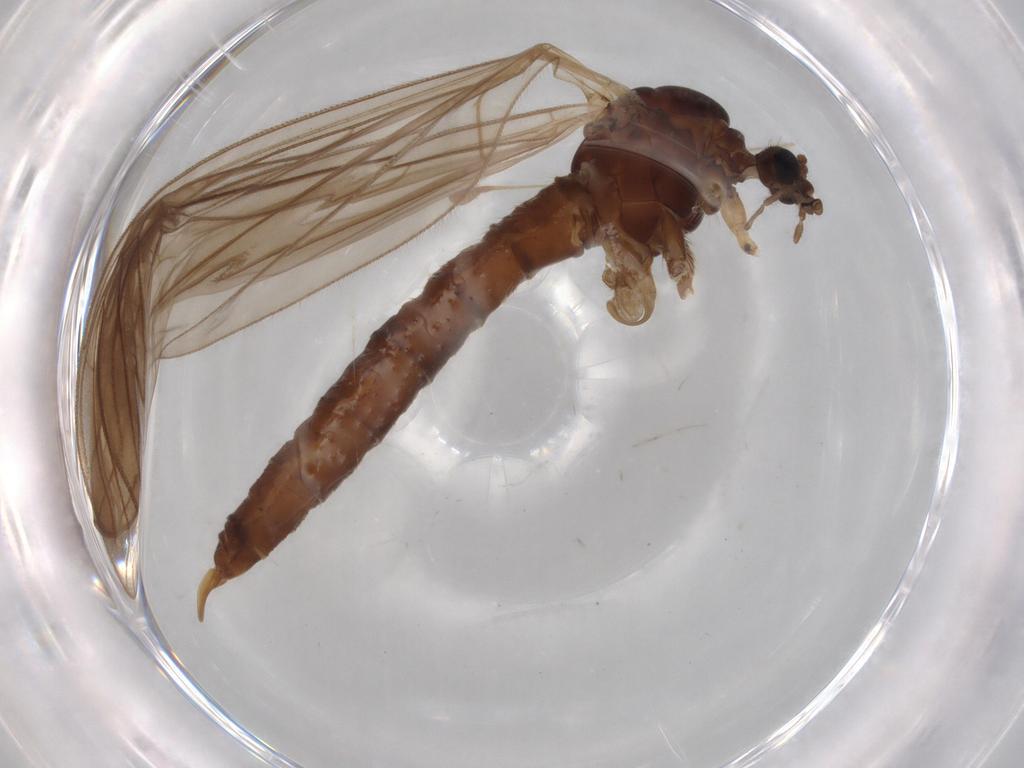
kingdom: Animalia
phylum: Arthropoda
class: Insecta
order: Diptera
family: Trichoceridae
